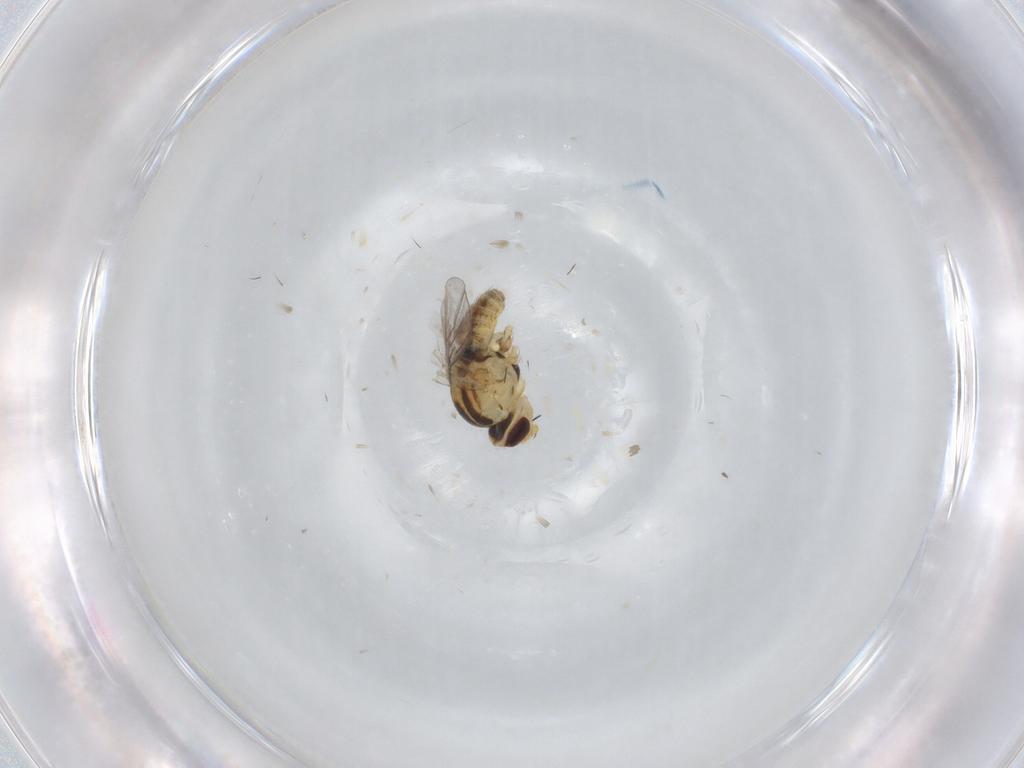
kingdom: Animalia
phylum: Arthropoda
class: Insecta
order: Diptera
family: Agromyzidae
